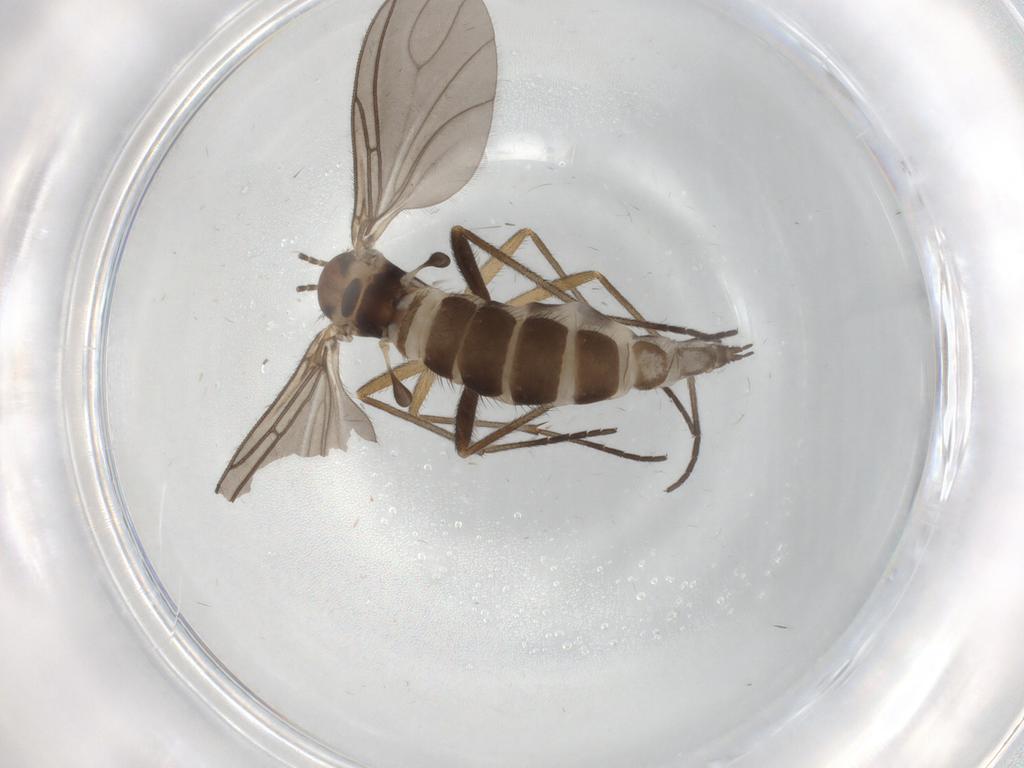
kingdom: Animalia
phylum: Arthropoda
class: Insecta
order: Diptera
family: Sciaridae
